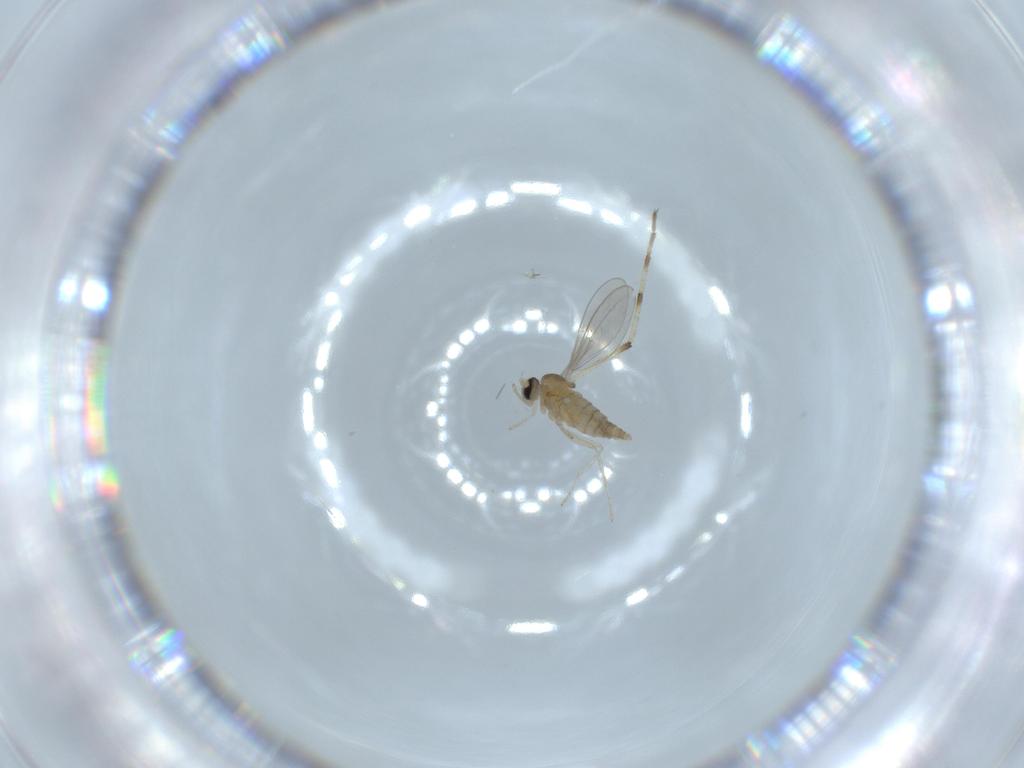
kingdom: Animalia
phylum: Arthropoda
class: Insecta
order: Diptera
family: Cecidomyiidae
